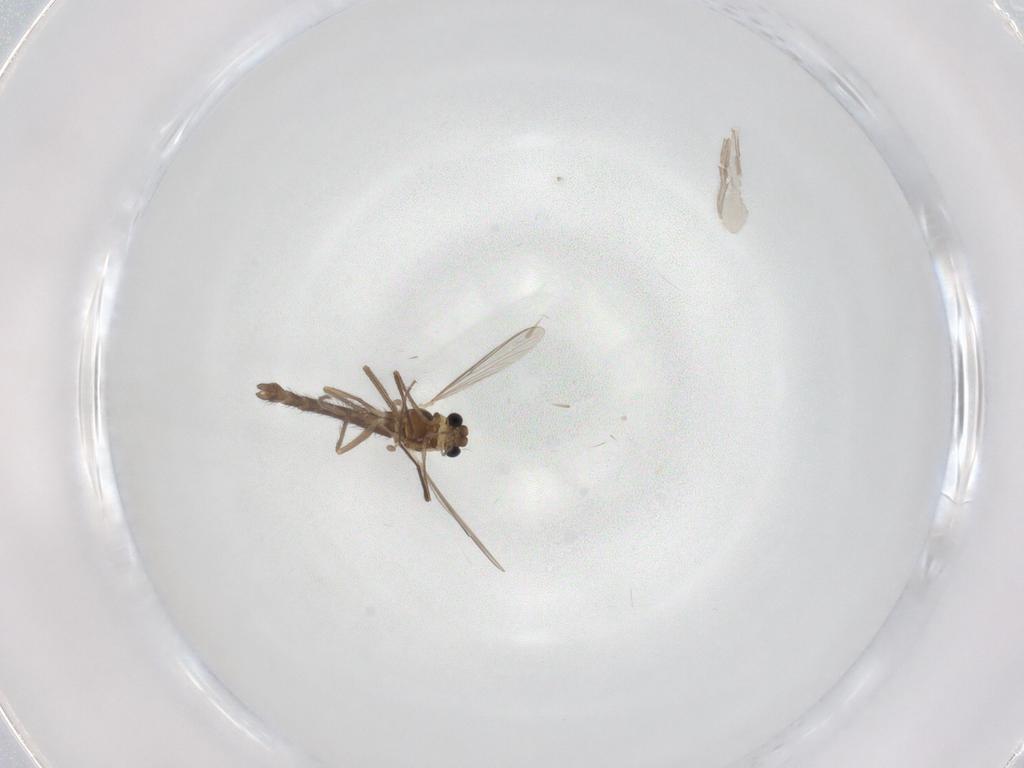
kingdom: Animalia
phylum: Arthropoda
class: Insecta
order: Diptera
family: Chironomidae
